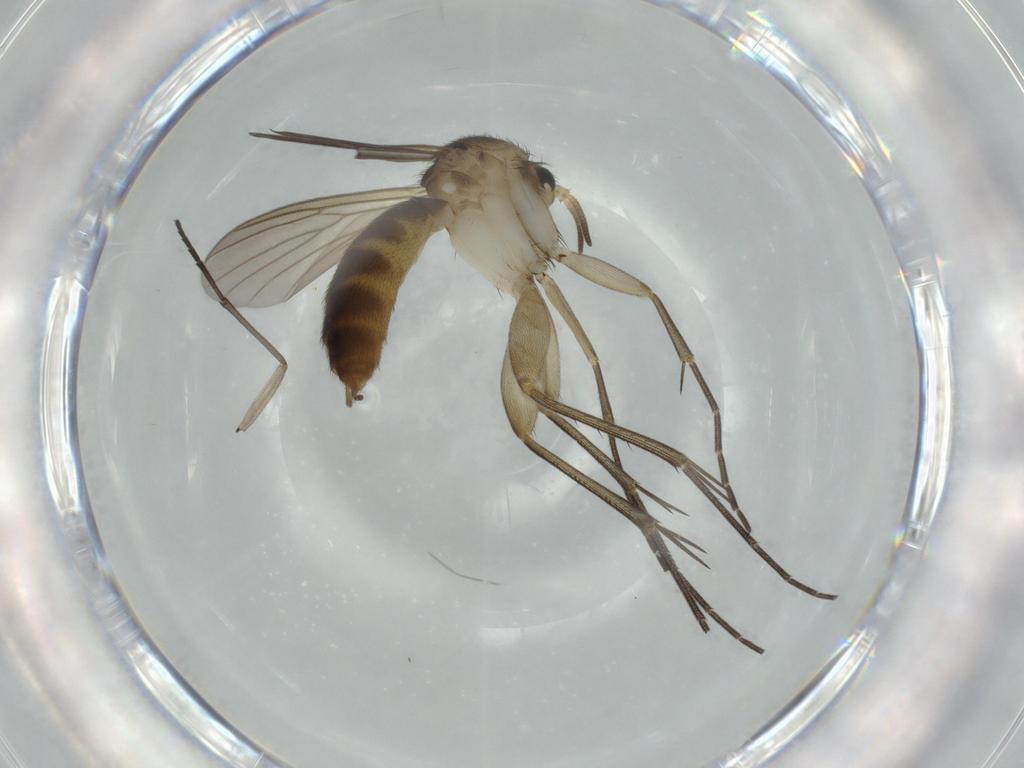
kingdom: Animalia
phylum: Arthropoda
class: Insecta
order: Diptera
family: Mycetophilidae
